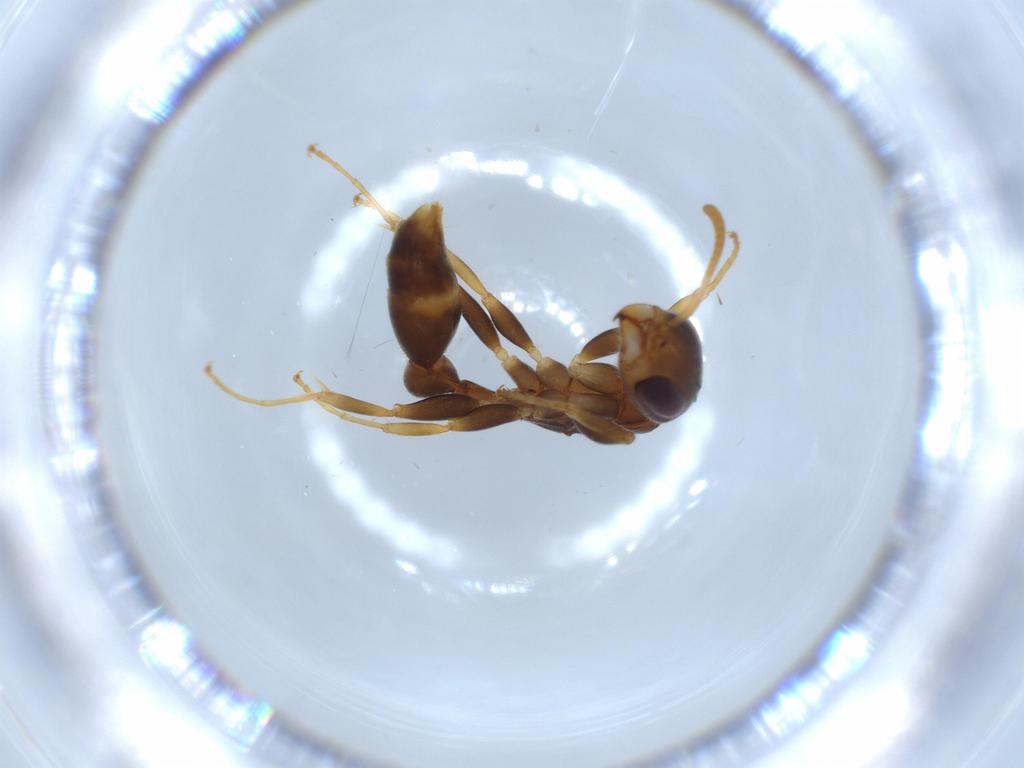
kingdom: Animalia
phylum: Arthropoda
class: Insecta
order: Hymenoptera
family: Formicidae
